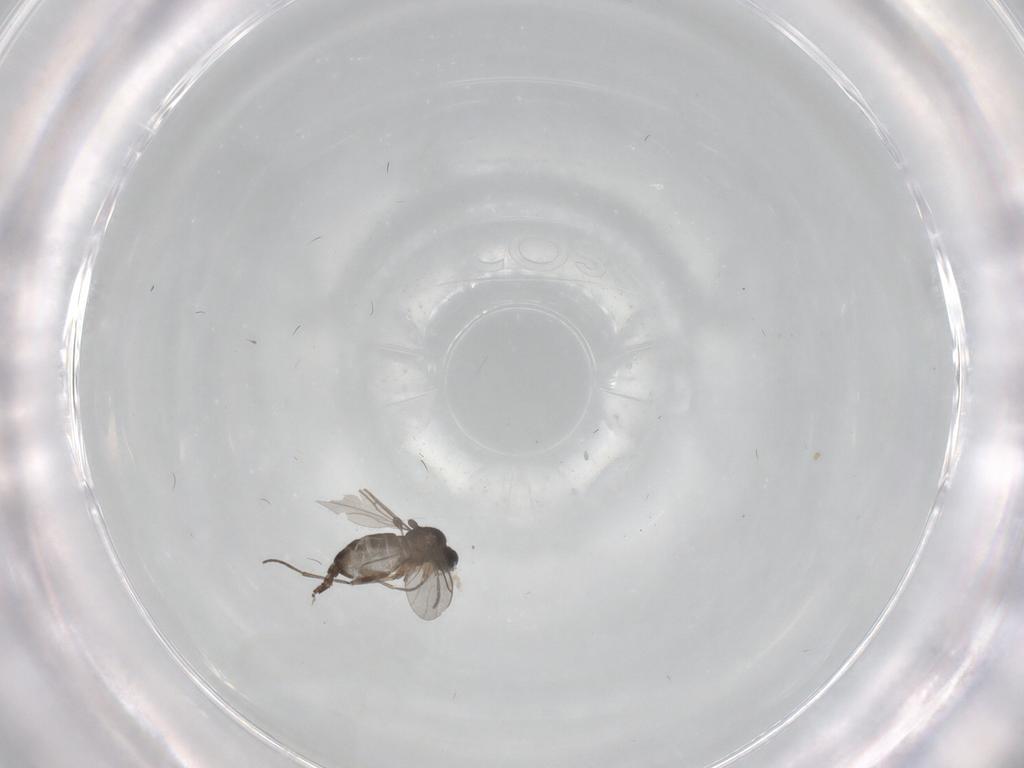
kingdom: Animalia
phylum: Arthropoda
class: Insecta
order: Diptera
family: Sciaridae
